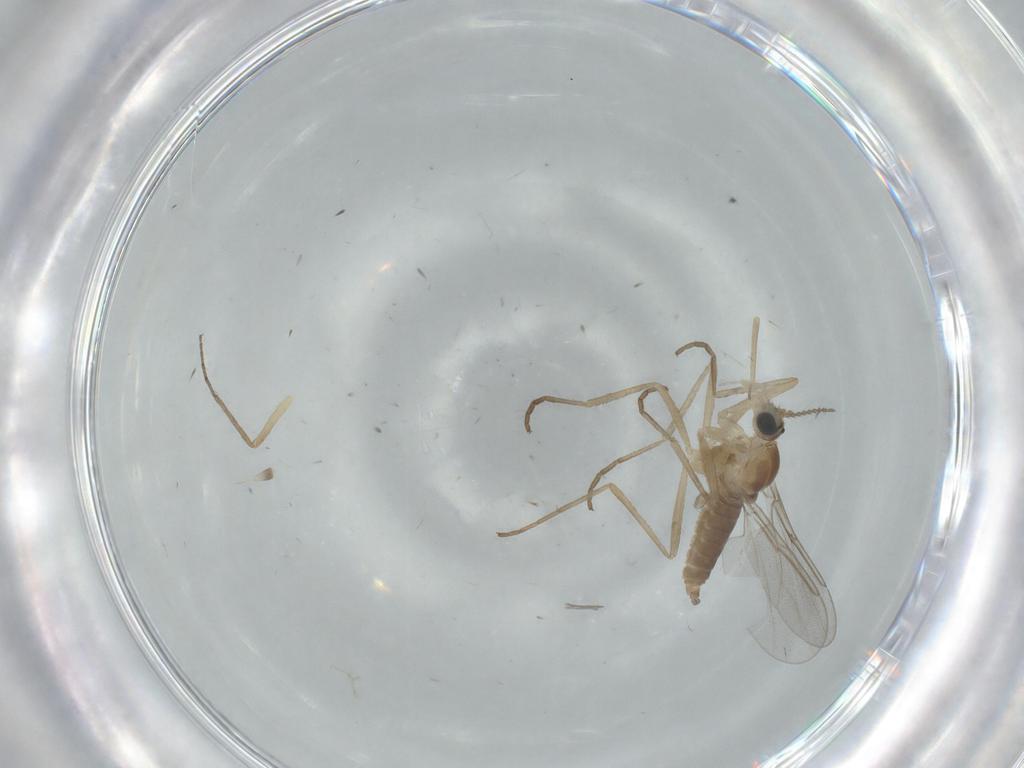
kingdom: Animalia
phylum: Arthropoda
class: Insecta
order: Diptera
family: Cecidomyiidae
